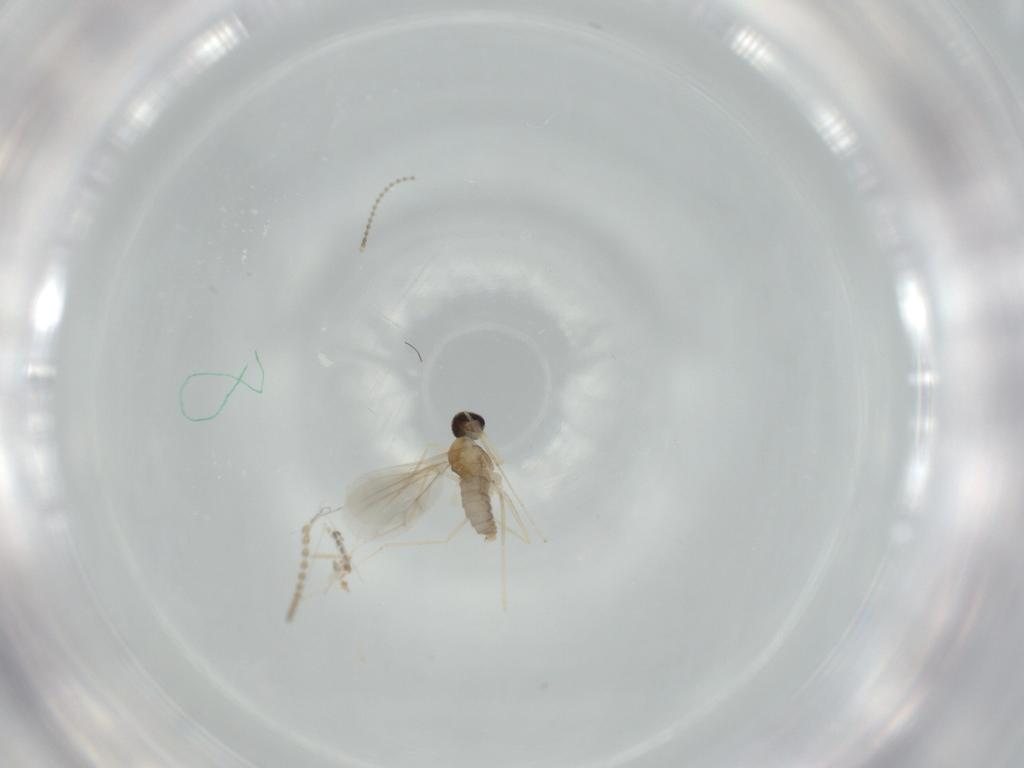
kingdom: Animalia
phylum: Arthropoda
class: Insecta
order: Diptera
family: Cecidomyiidae
